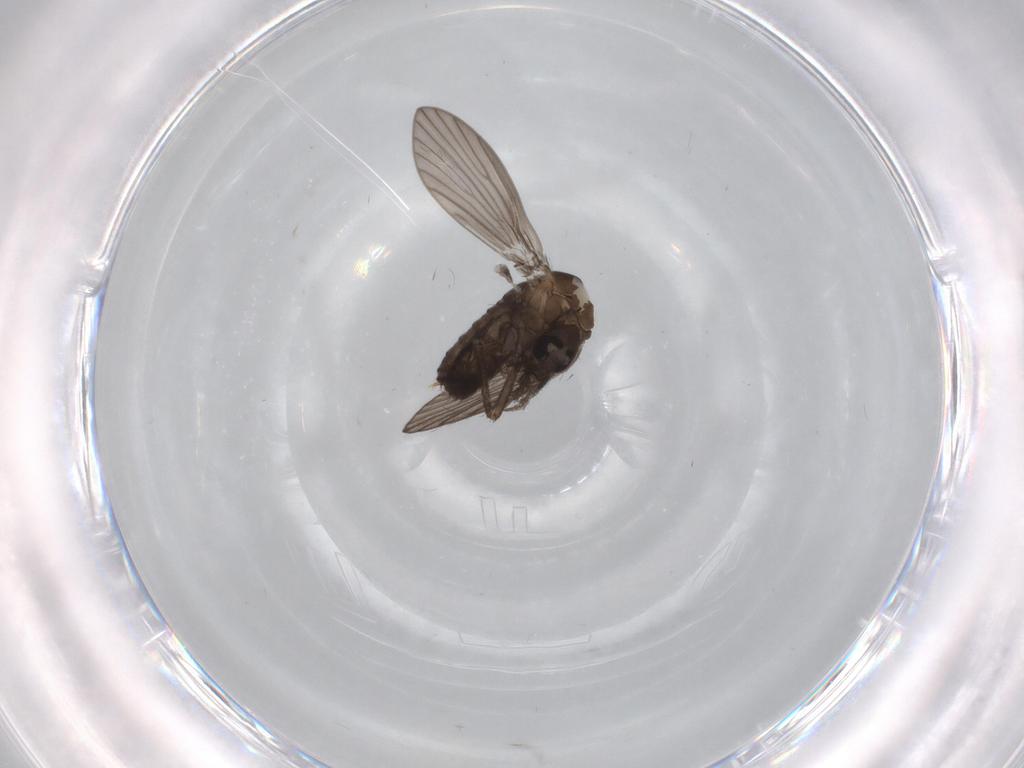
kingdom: Animalia
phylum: Arthropoda
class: Insecta
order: Diptera
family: Psychodidae
